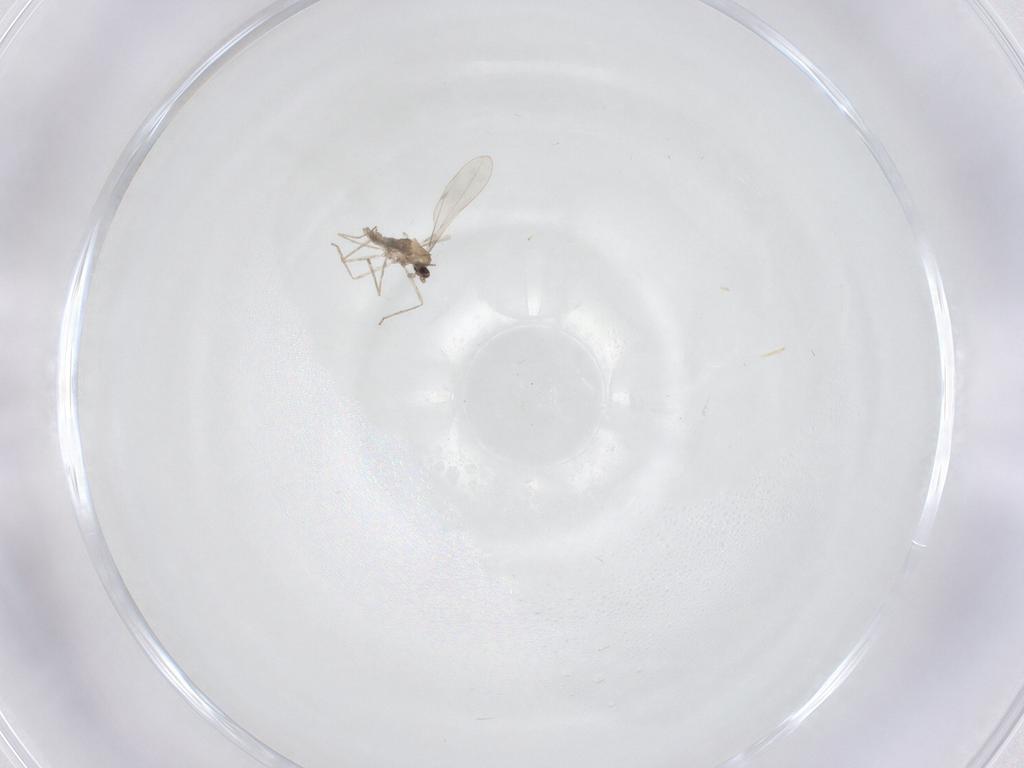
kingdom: Animalia
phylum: Arthropoda
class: Insecta
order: Diptera
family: Cecidomyiidae
